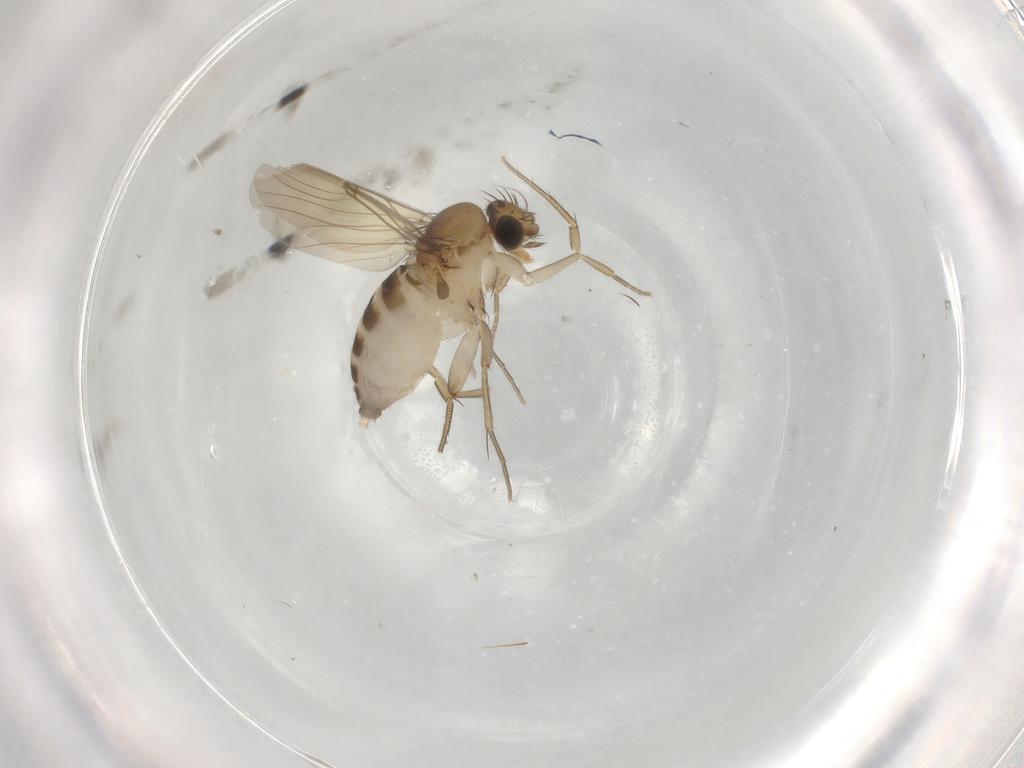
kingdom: Animalia
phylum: Arthropoda
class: Insecta
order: Diptera
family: Phoridae
